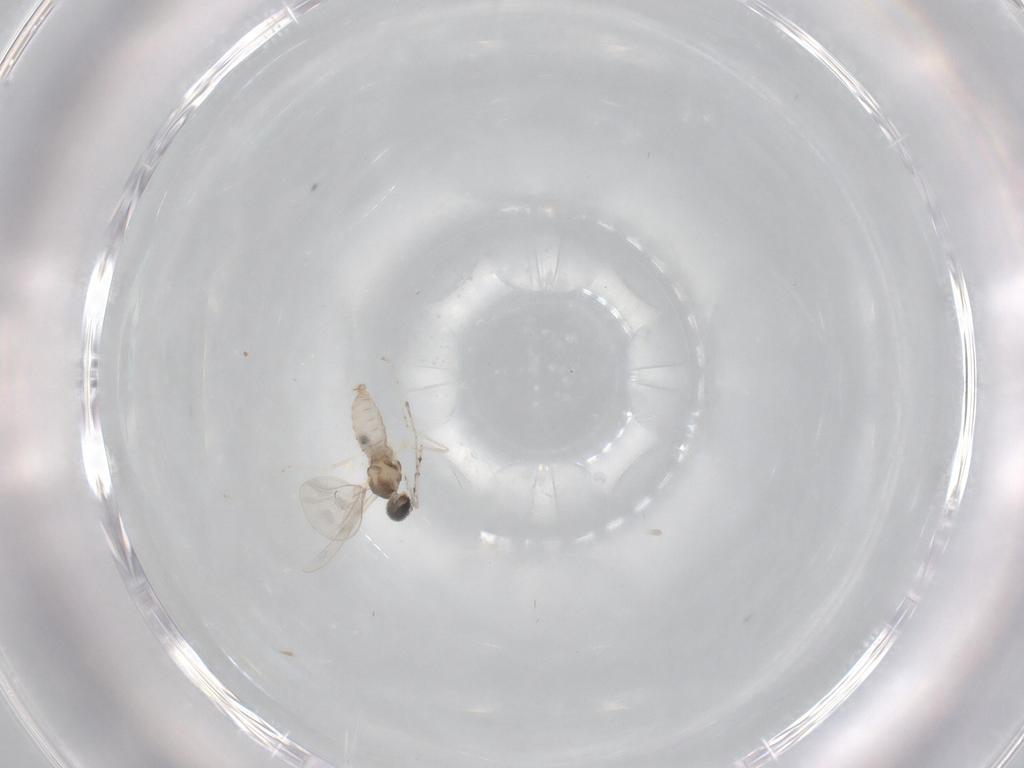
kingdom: Animalia
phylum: Arthropoda
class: Insecta
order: Diptera
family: Cecidomyiidae
